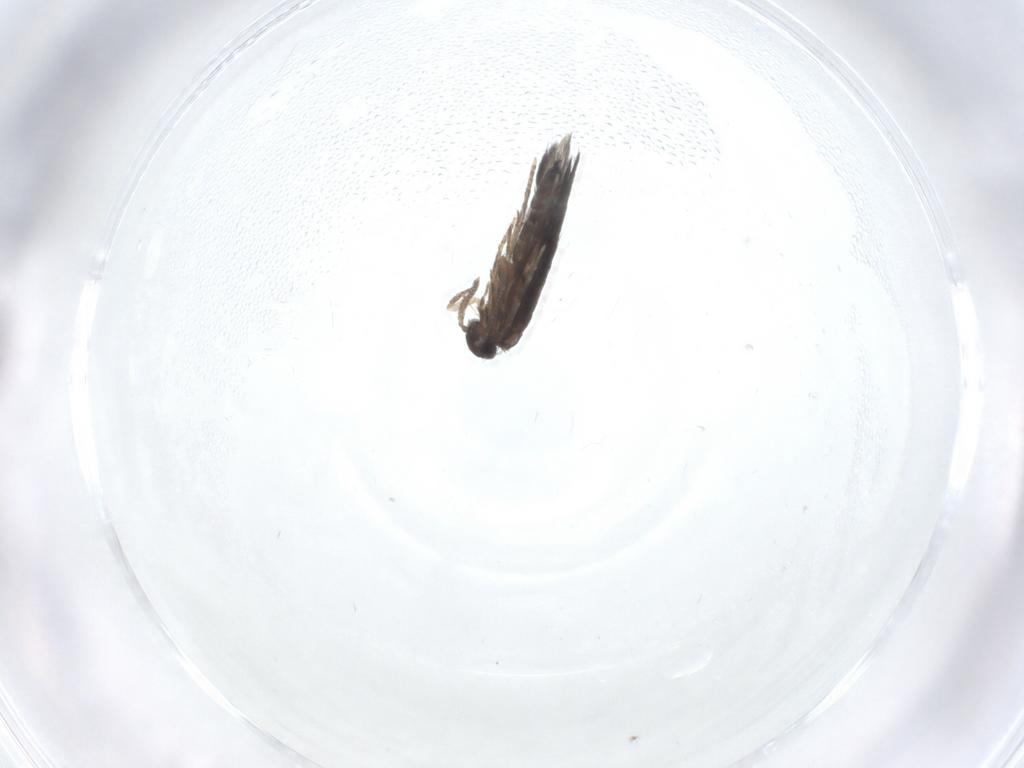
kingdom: Animalia
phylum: Arthropoda
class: Insecta
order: Trichoptera
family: Hydroptilidae
